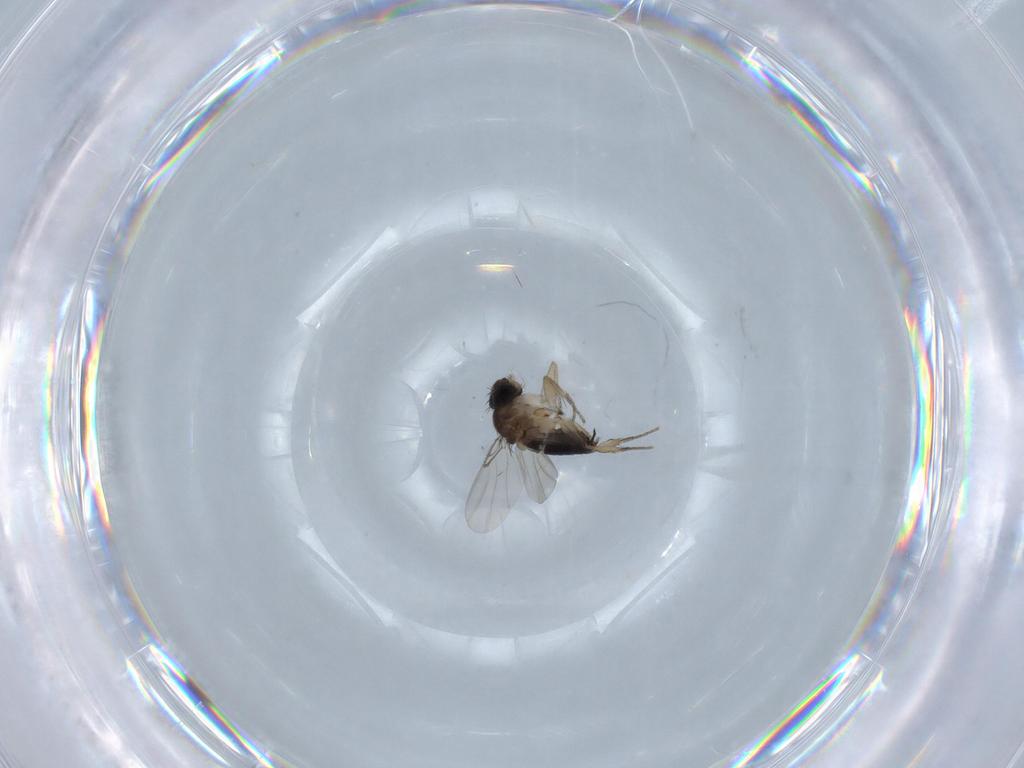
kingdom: Animalia
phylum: Arthropoda
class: Insecta
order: Diptera
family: Phoridae
